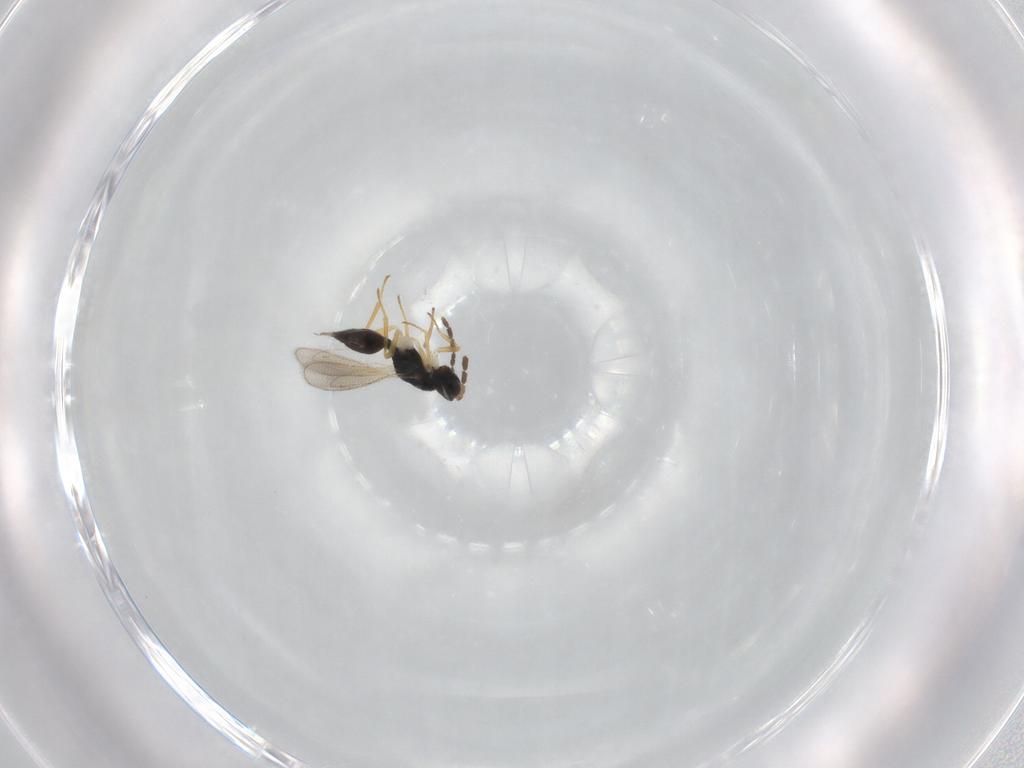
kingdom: Animalia
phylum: Arthropoda
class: Insecta
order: Hymenoptera
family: Eulophidae
